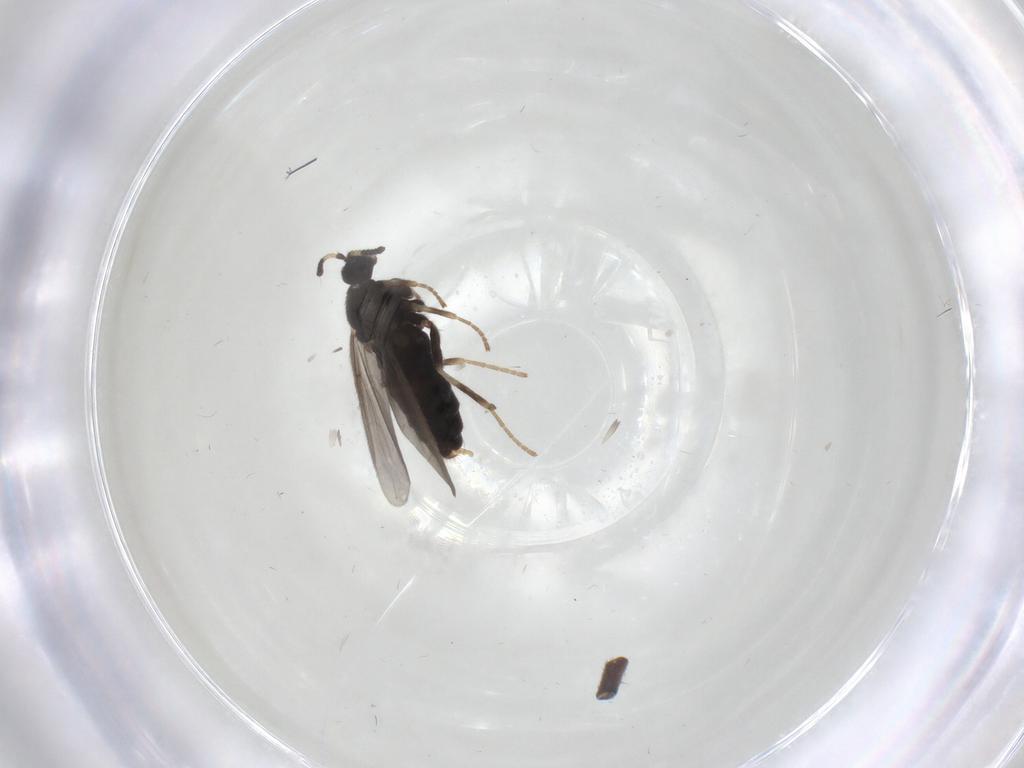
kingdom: Animalia
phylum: Arthropoda
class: Insecta
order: Diptera
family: Scatopsidae
